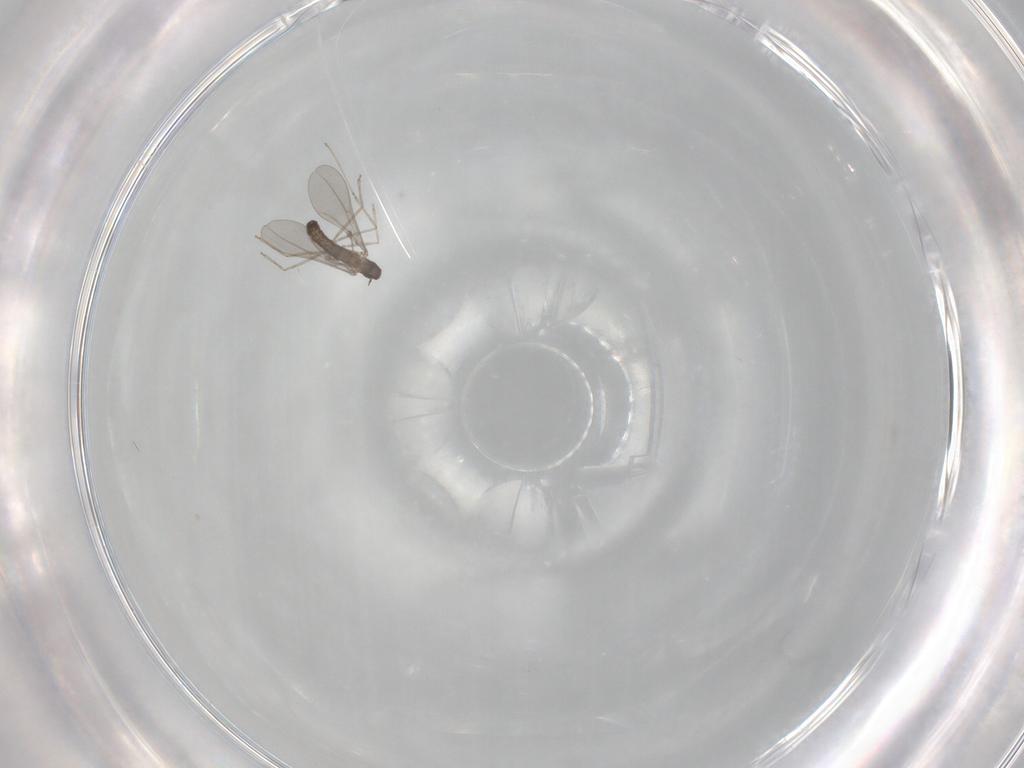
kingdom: Animalia
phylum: Arthropoda
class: Insecta
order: Diptera
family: Cecidomyiidae
